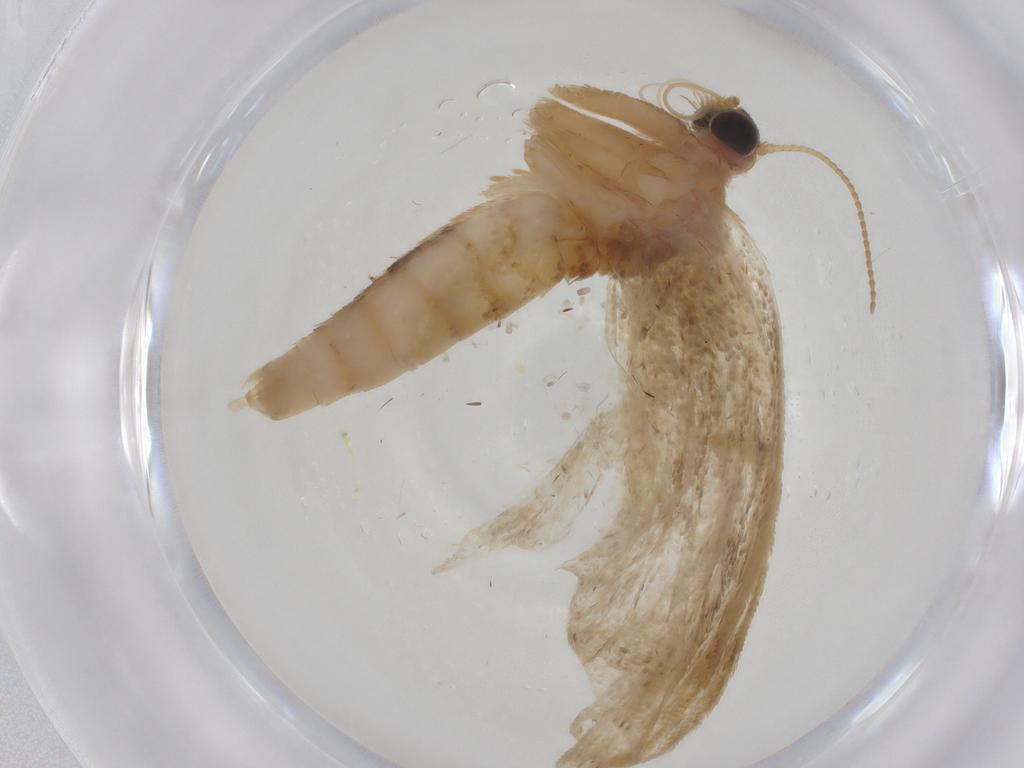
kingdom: Animalia
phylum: Arthropoda
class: Insecta
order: Lepidoptera
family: Geometridae
